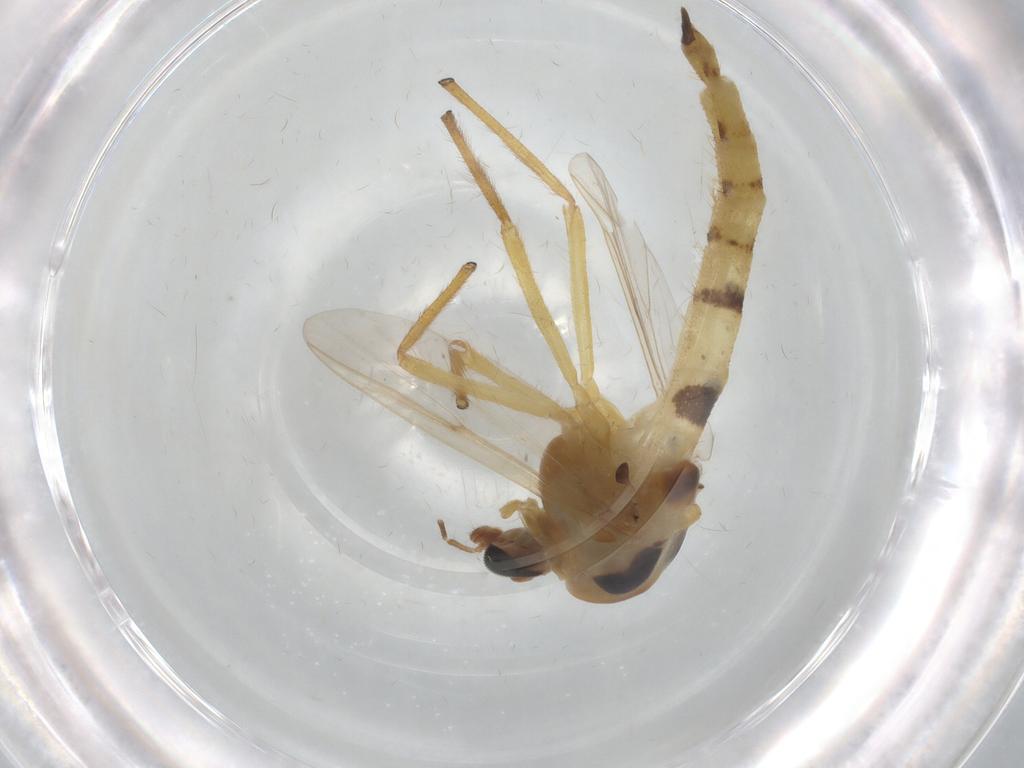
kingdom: Animalia
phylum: Arthropoda
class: Insecta
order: Diptera
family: Chironomidae
